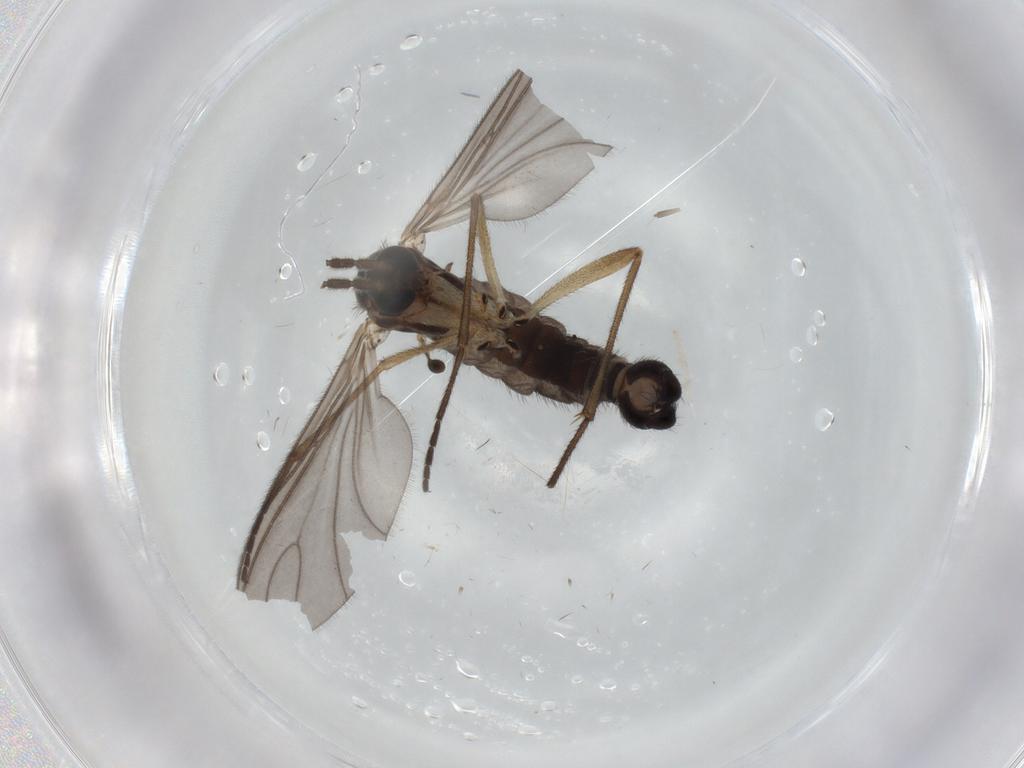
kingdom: Animalia
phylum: Arthropoda
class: Insecta
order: Diptera
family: Sciaridae
